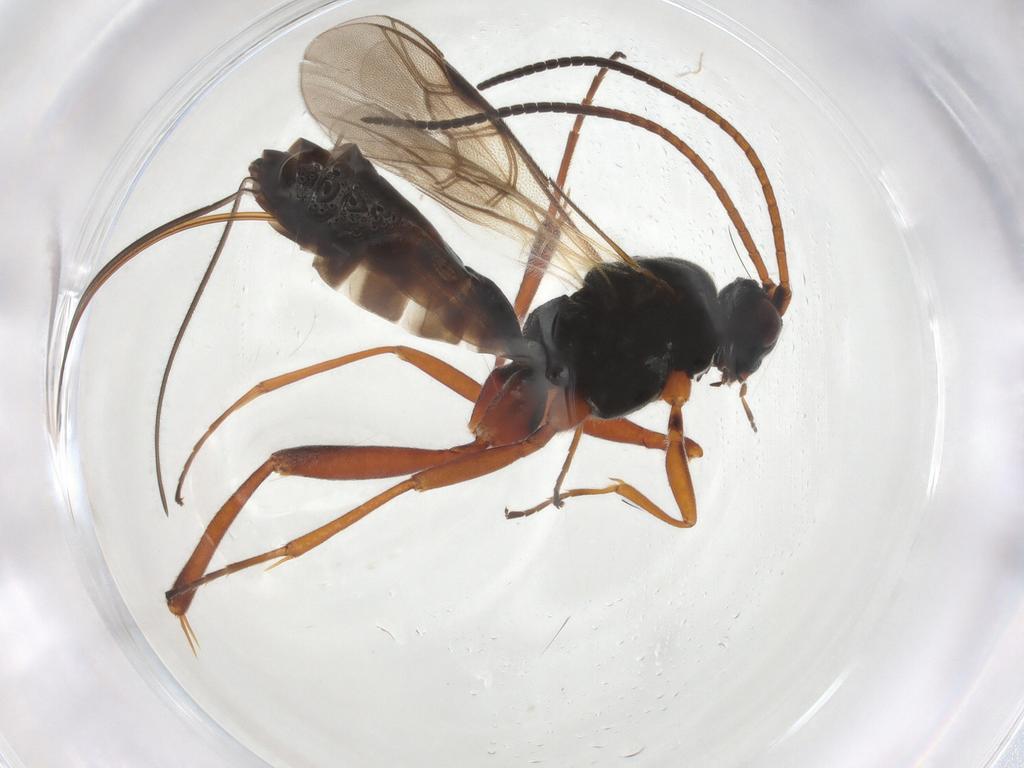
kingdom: Animalia
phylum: Arthropoda
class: Insecta
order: Hymenoptera
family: Braconidae
